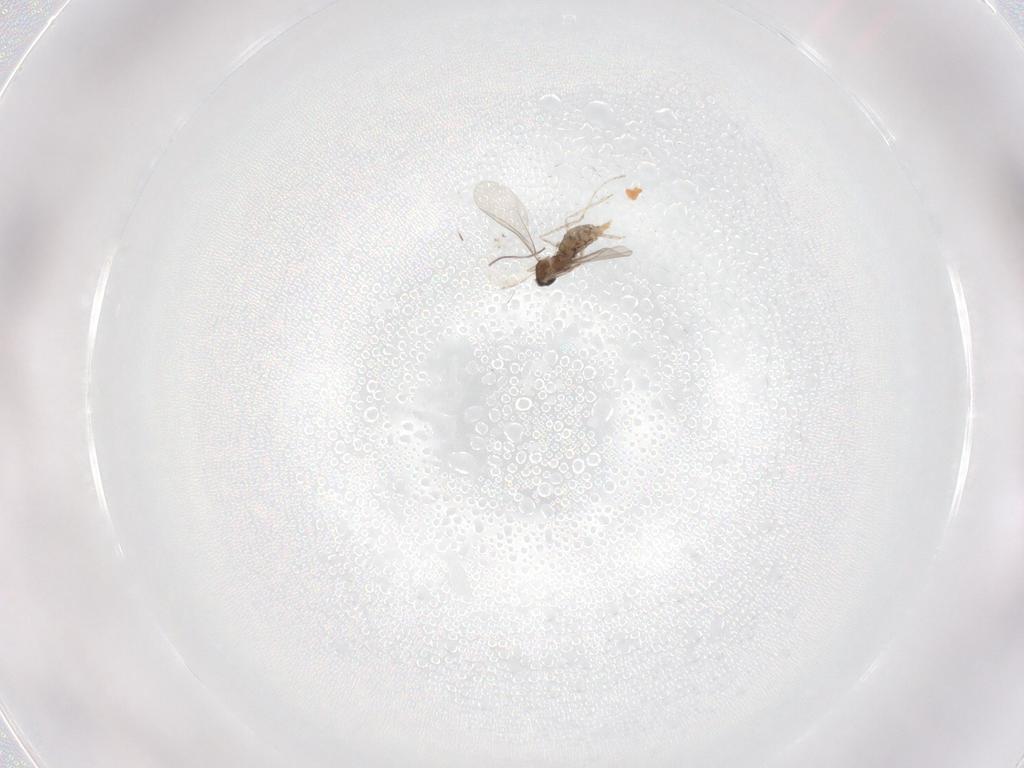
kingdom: Animalia
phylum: Arthropoda
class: Insecta
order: Diptera
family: Cecidomyiidae
